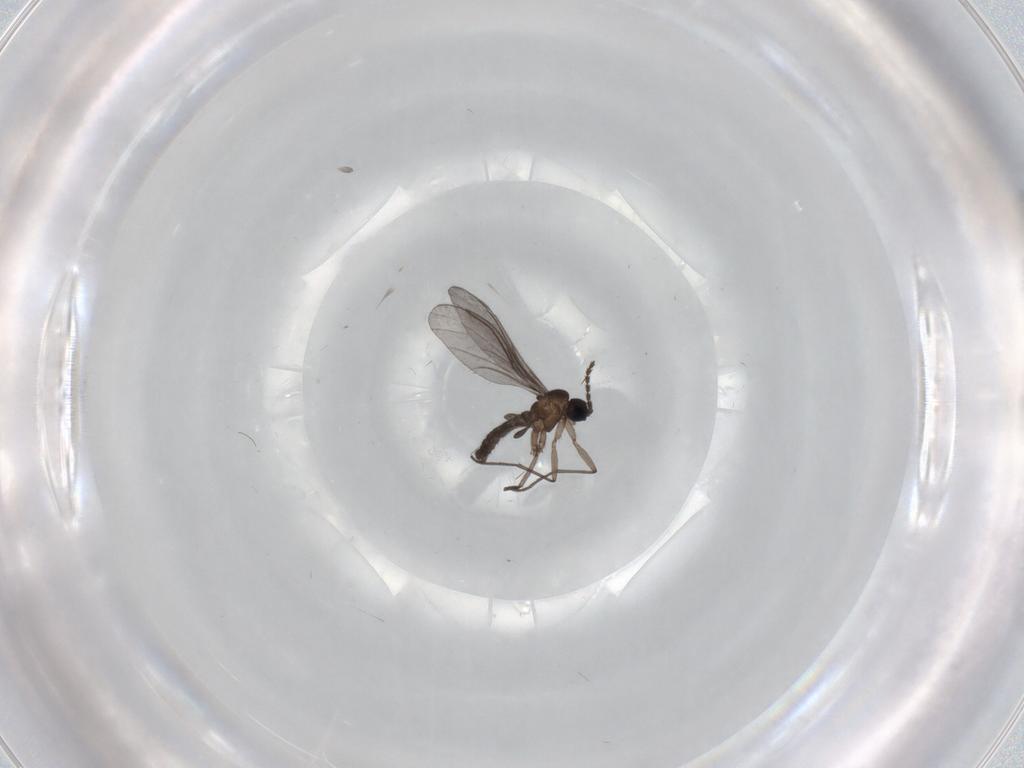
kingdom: Animalia
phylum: Arthropoda
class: Insecta
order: Diptera
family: Sciaridae
